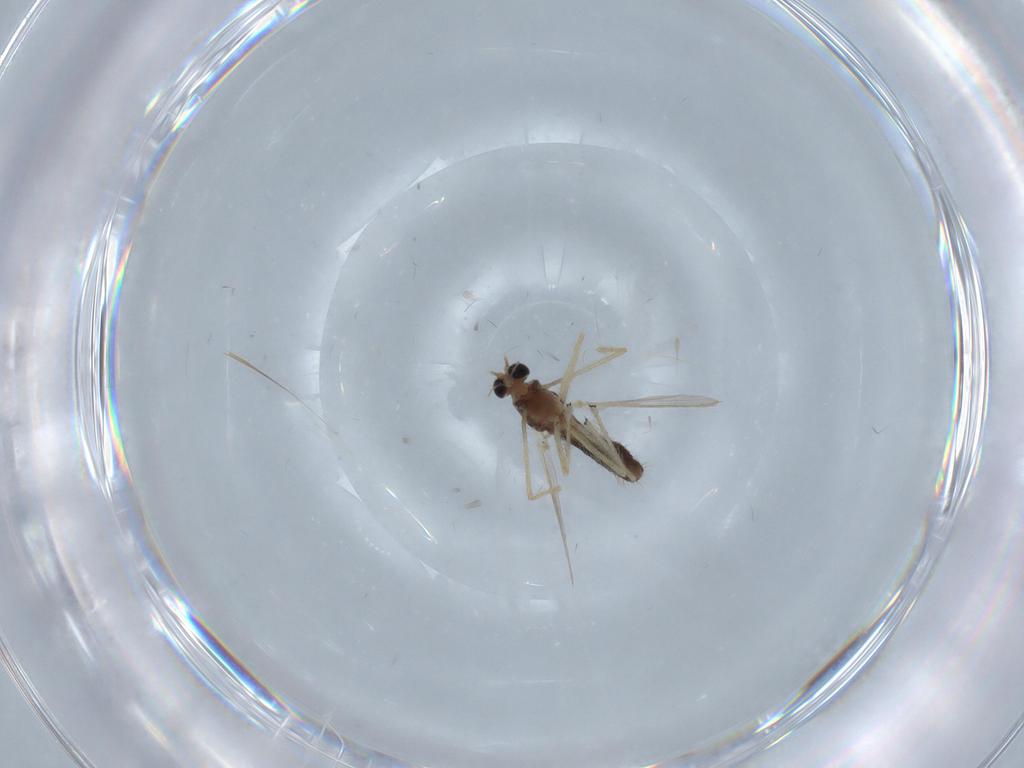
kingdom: Animalia
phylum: Arthropoda
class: Insecta
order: Diptera
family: Chironomidae
